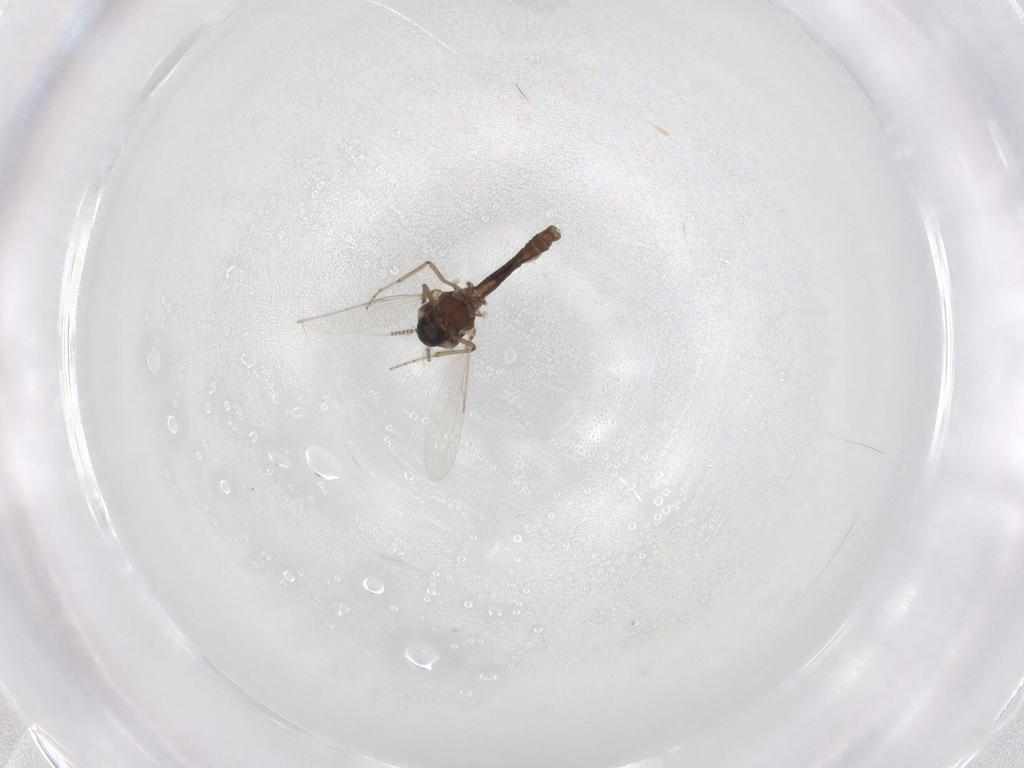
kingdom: Animalia
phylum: Arthropoda
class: Insecta
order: Diptera
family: Ceratopogonidae
